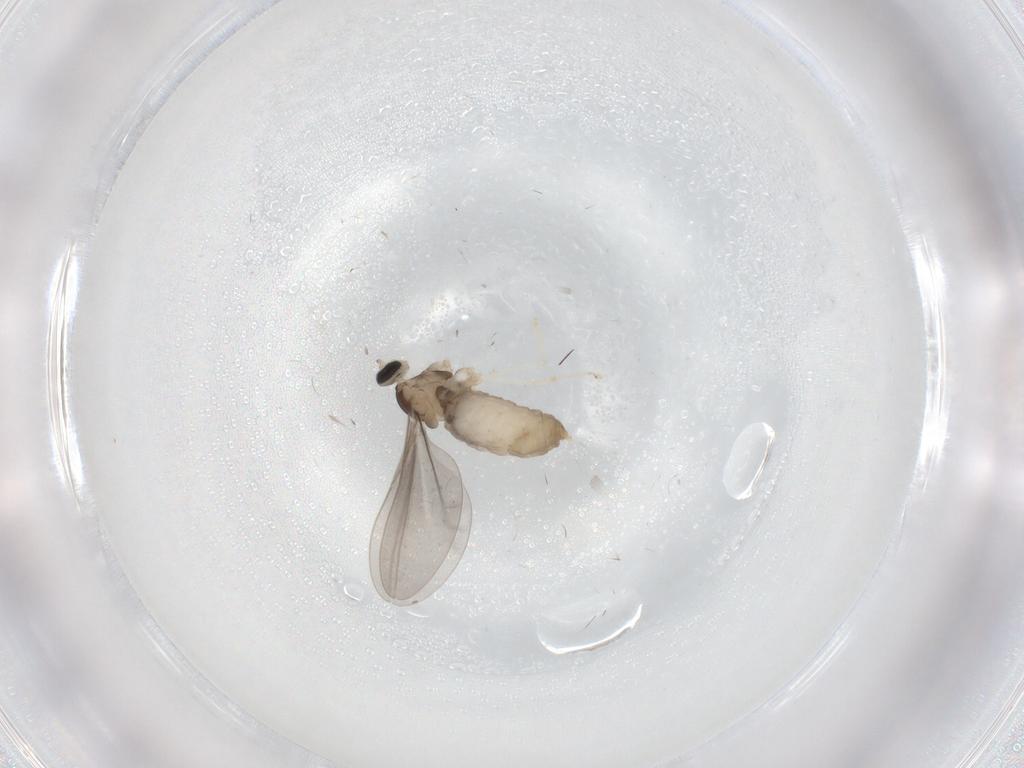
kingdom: Animalia
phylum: Arthropoda
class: Insecta
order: Diptera
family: Cecidomyiidae
